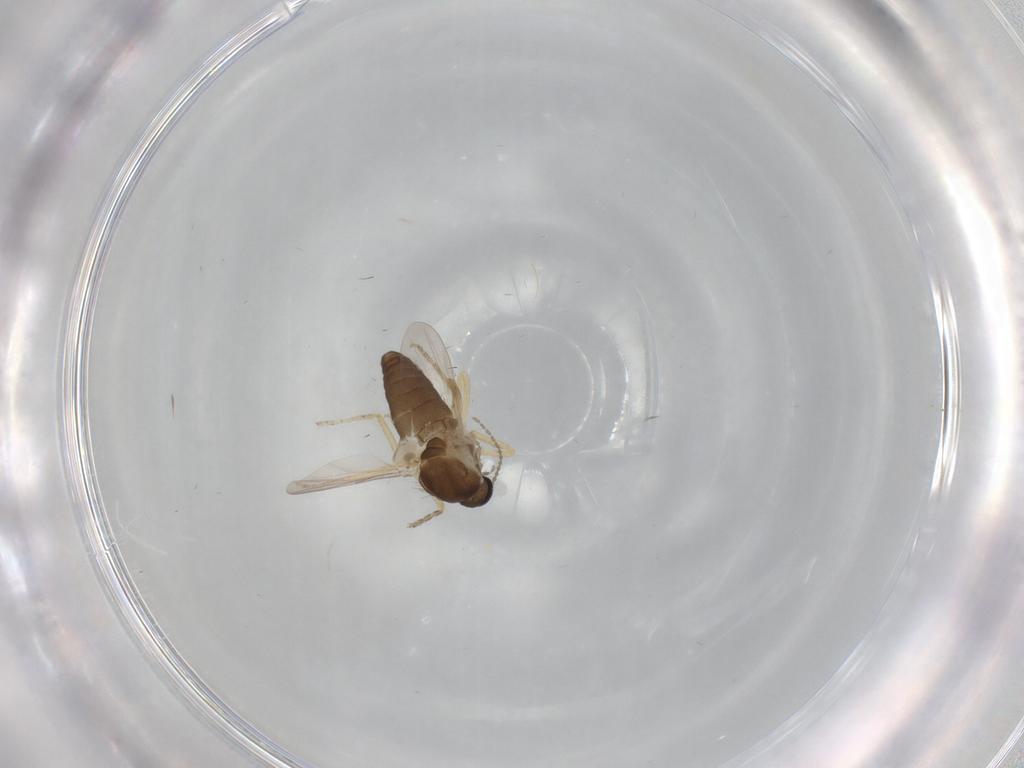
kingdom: Animalia
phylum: Arthropoda
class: Insecta
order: Diptera
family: Ceratopogonidae
